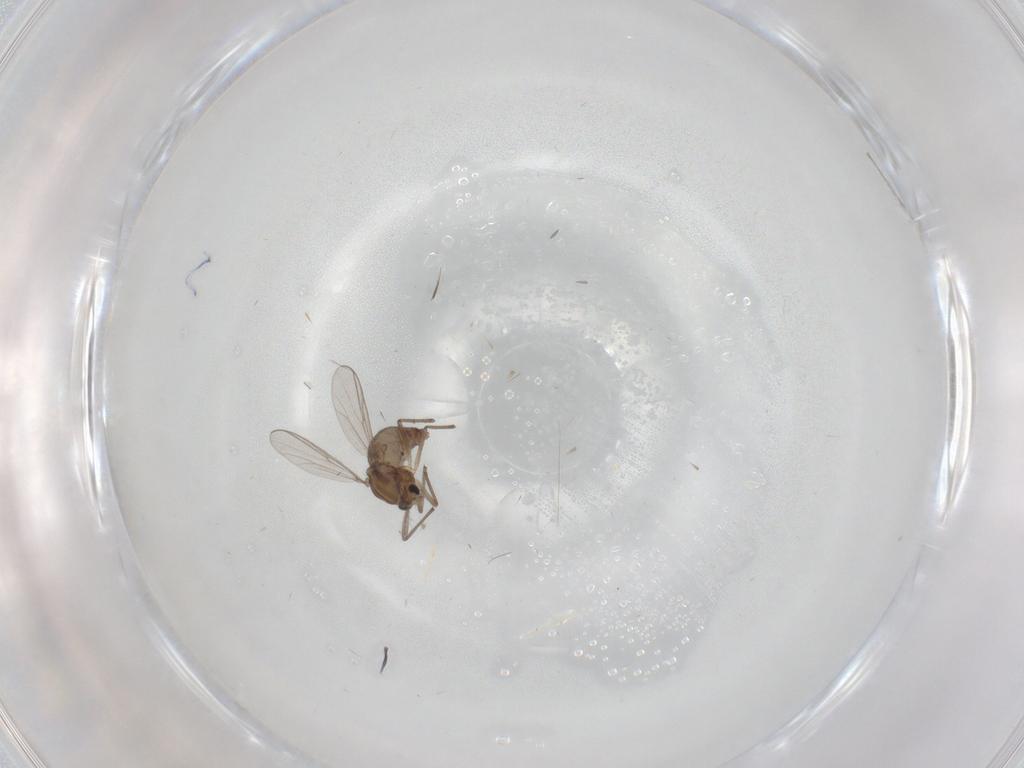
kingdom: Animalia
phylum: Arthropoda
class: Insecta
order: Diptera
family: Chironomidae
